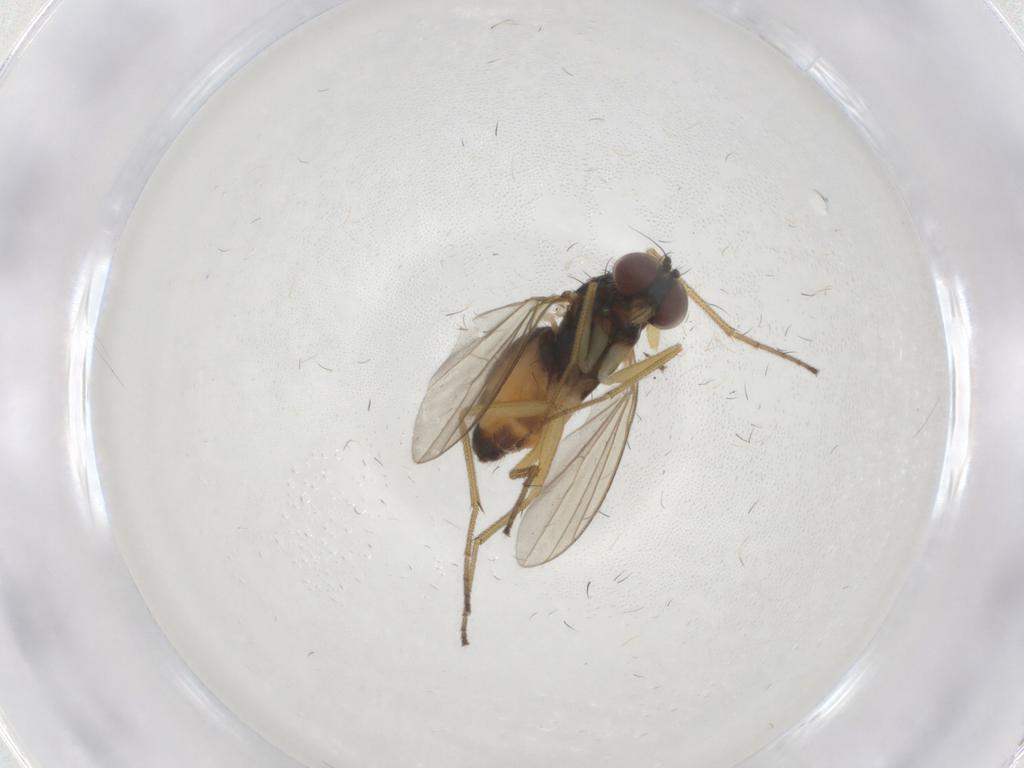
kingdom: Animalia
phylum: Arthropoda
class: Insecta
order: Diptera
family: Dolichopodidae
